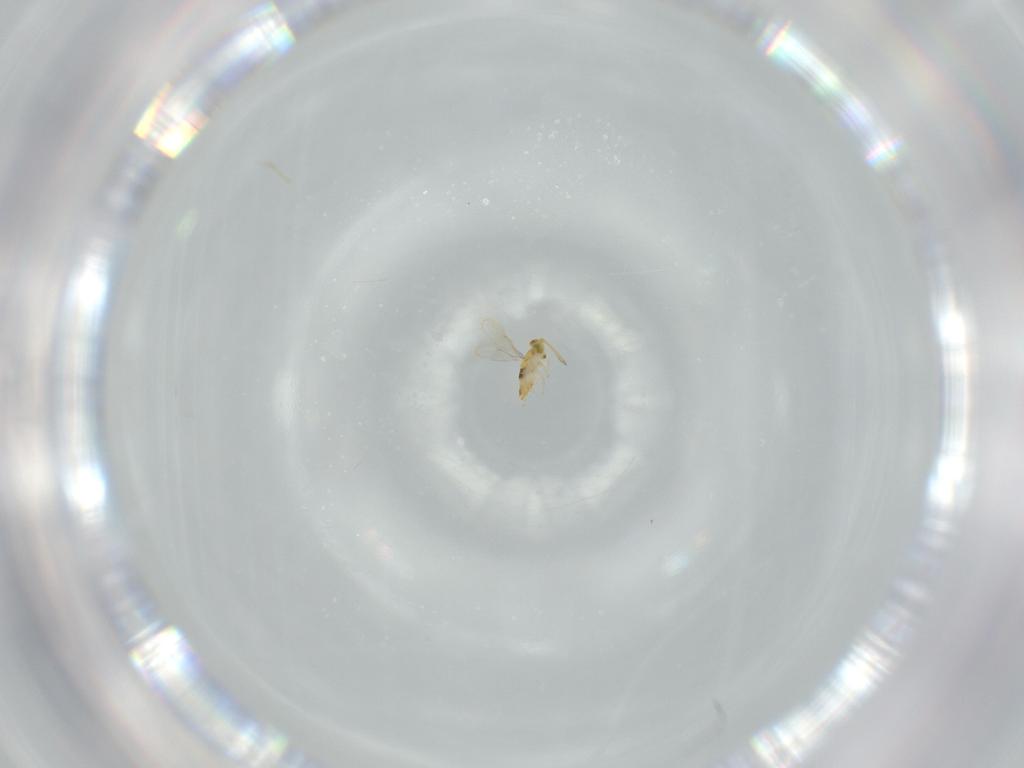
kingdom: Animalia
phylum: Arthropoda
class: Insecta
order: Hymenoptera
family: Aphelinidae
